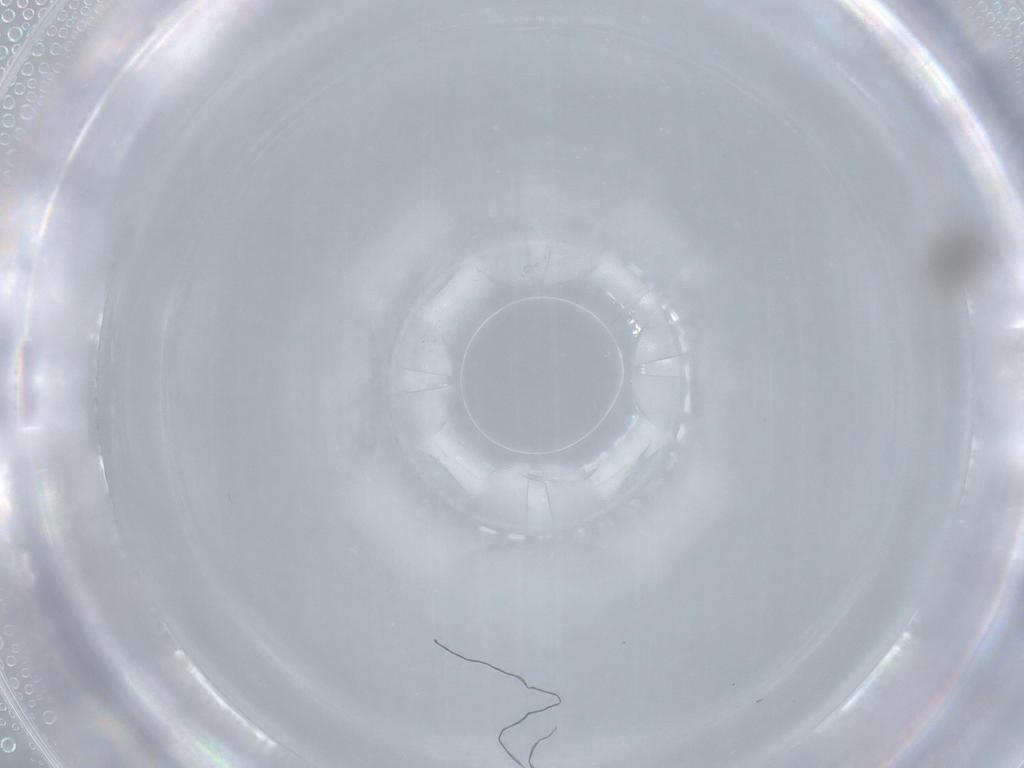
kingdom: Animalia
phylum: Arthropoda
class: Insecta
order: Hymenoptera
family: Signiphoridae
